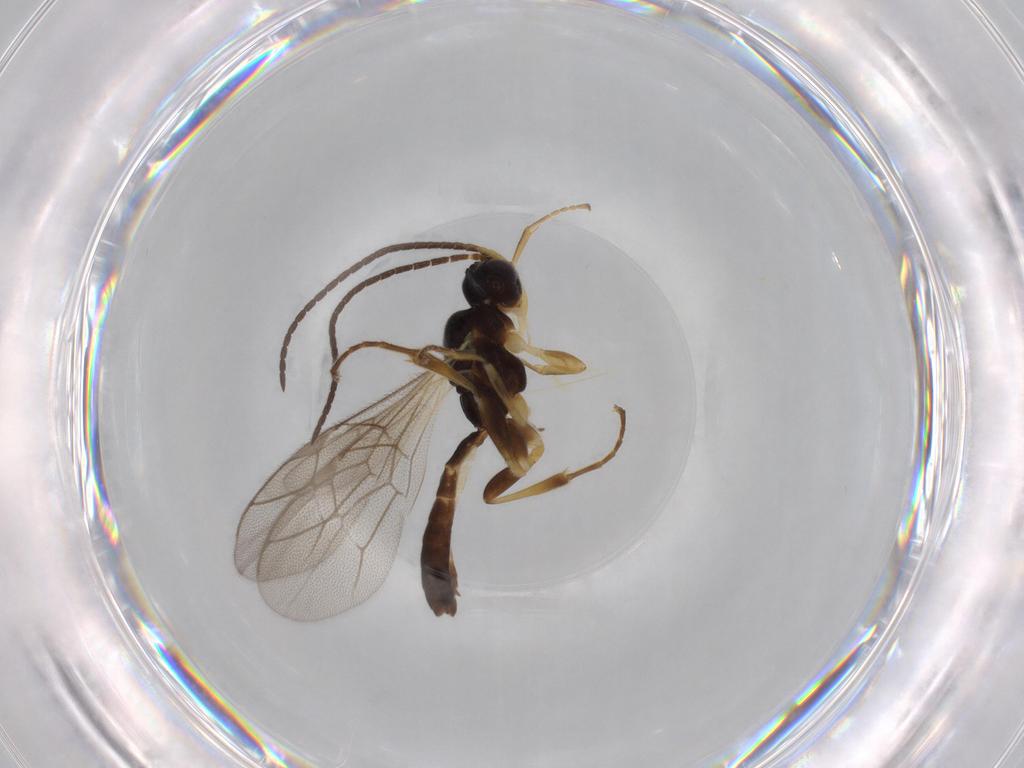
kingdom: Animalia
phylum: Arthropoda
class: Insecta
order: Hymenoptera
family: Ichneumonidae
